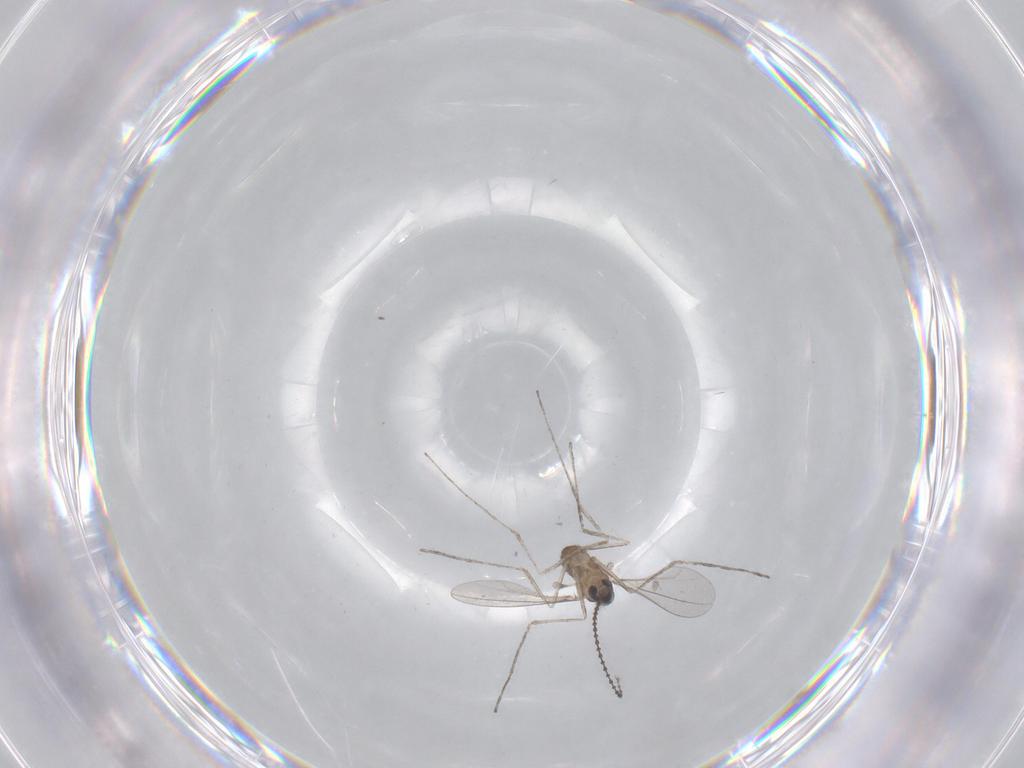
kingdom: Animalia
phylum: Arthropoda
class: Insecta
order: Diptera
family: Cecidomyiidae
